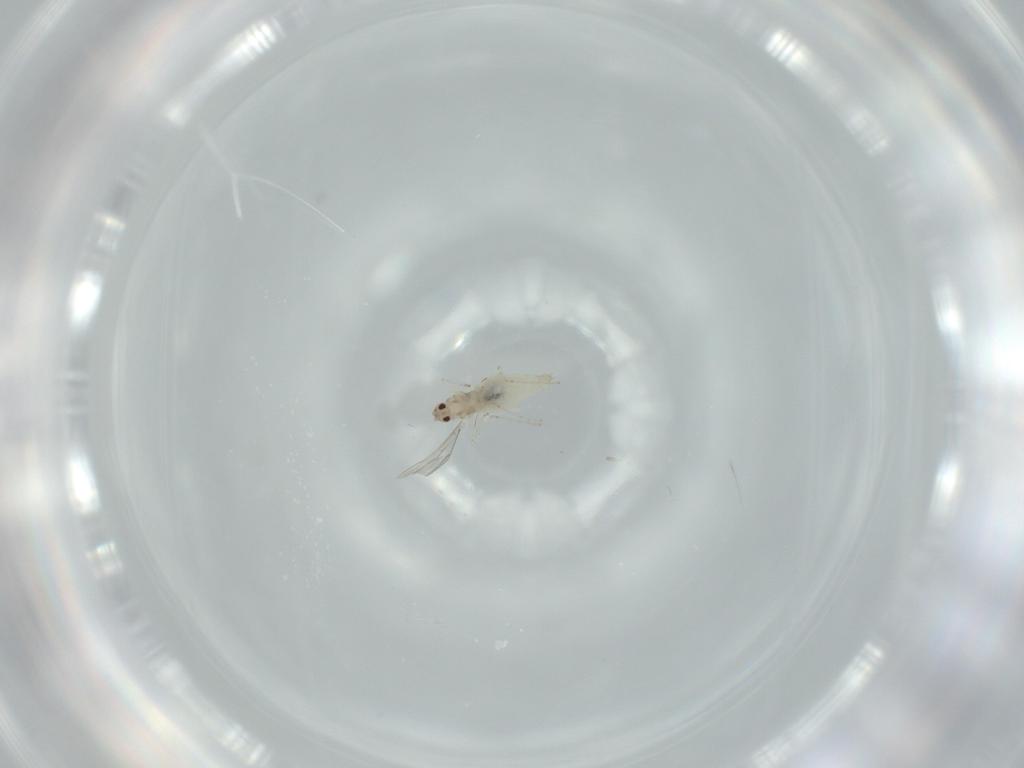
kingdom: Animalia
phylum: Arthropoda
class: Insecta
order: Diptera
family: Cecidomyiidae
